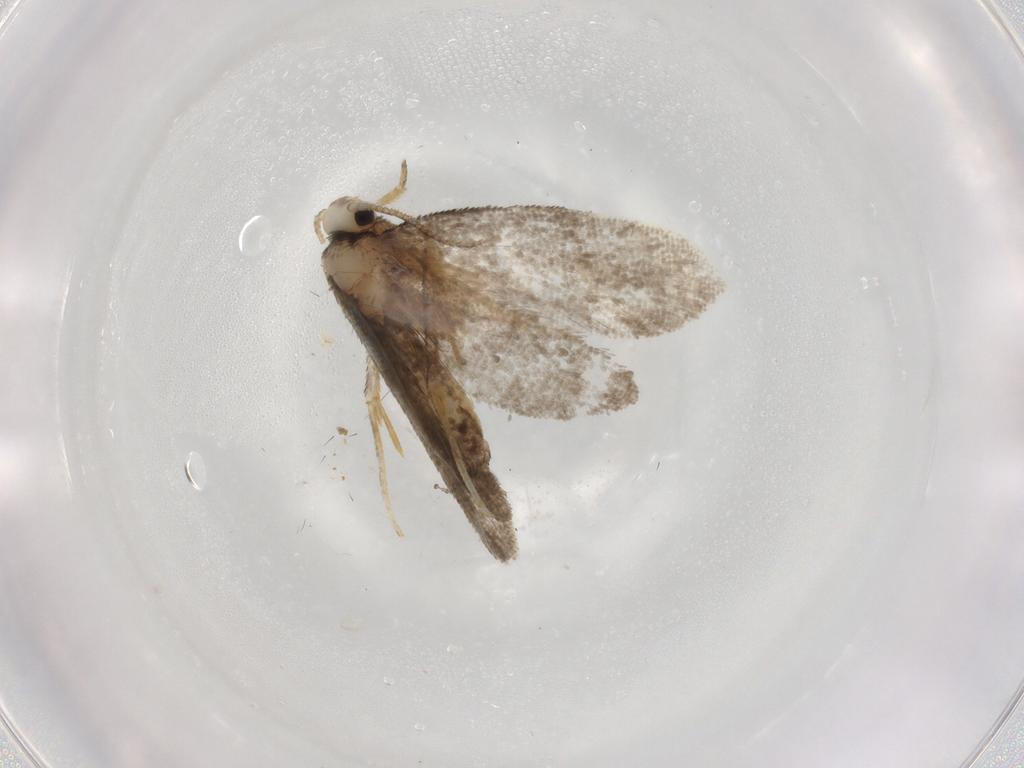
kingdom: Animalia
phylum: Arthropoda
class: Insecta
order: Lepidoptera
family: Psychidae
